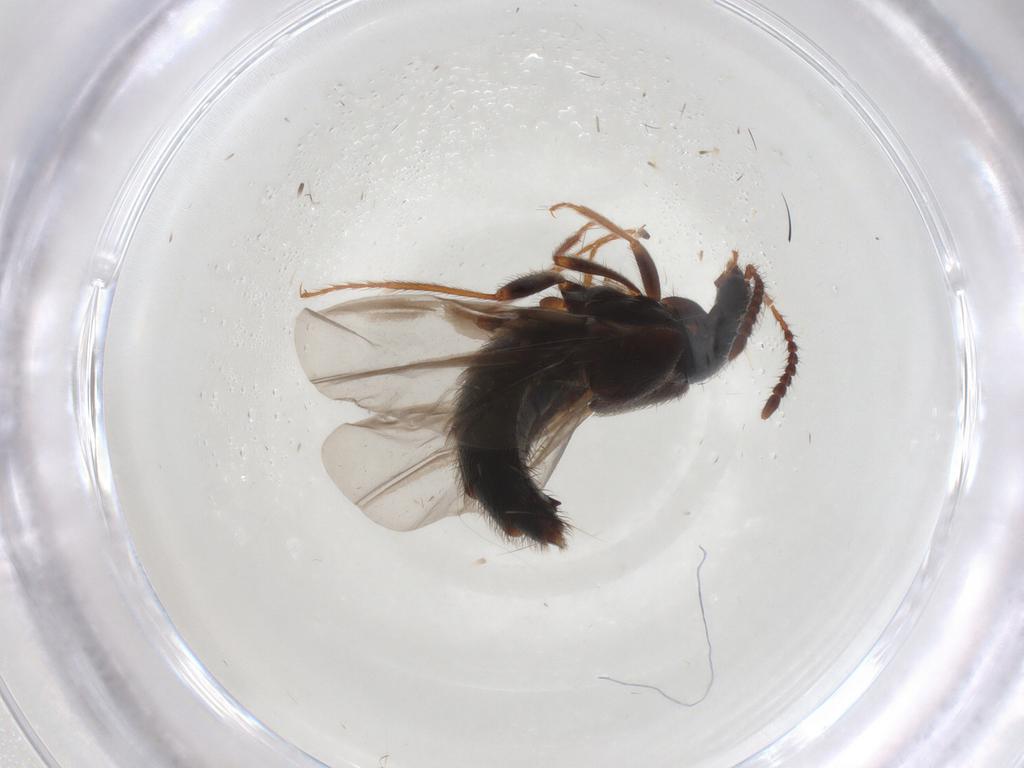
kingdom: Animalia
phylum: Arthropoda
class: Insecta
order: Coleoptera
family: Staphylinidae
